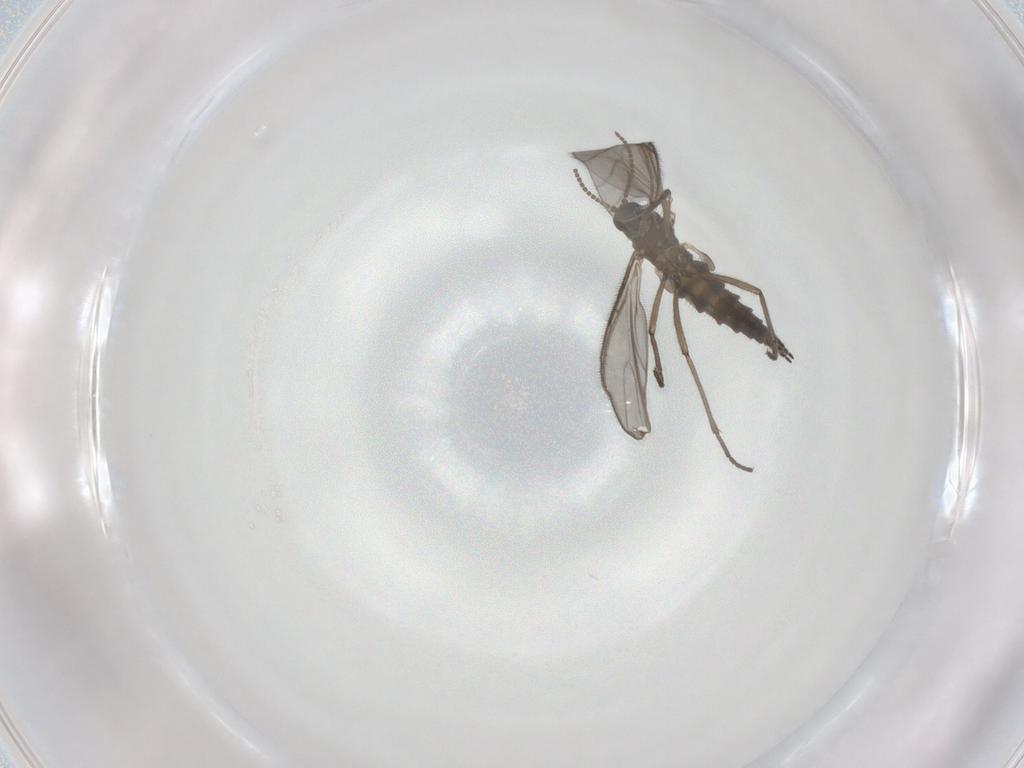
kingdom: Animalia
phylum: Arthropoda
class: Insecta
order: Diptera
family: Sciaridae
